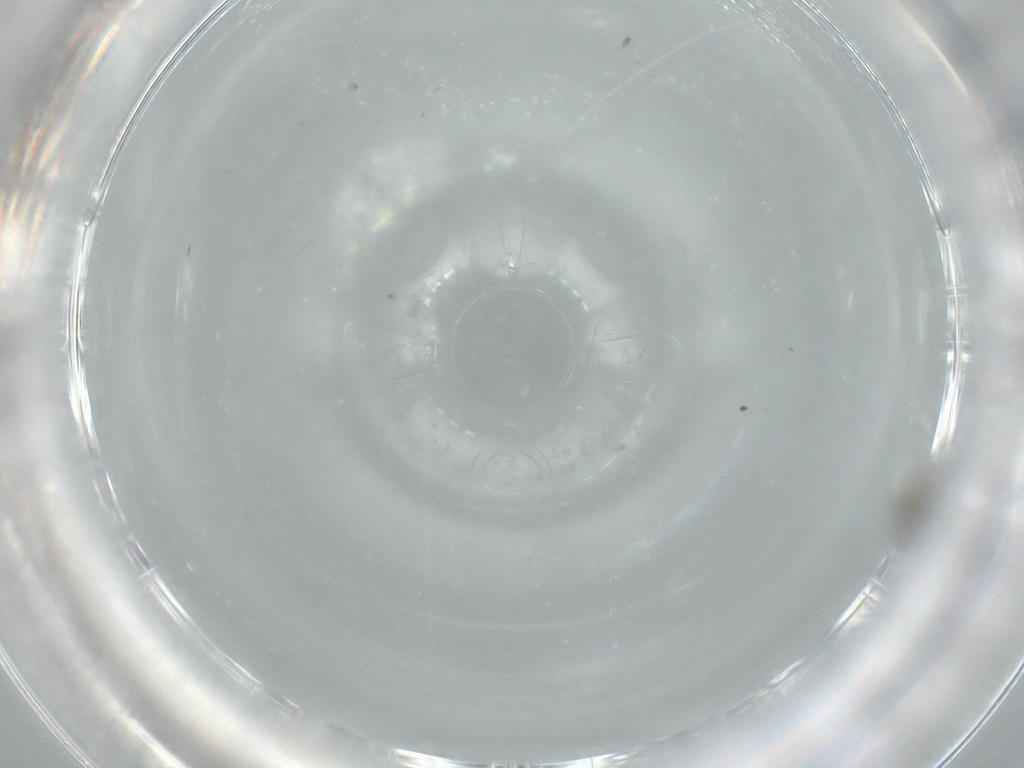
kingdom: Animalia
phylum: Arthropoda
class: Insecta
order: Diptera
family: Cecidomyiidae
